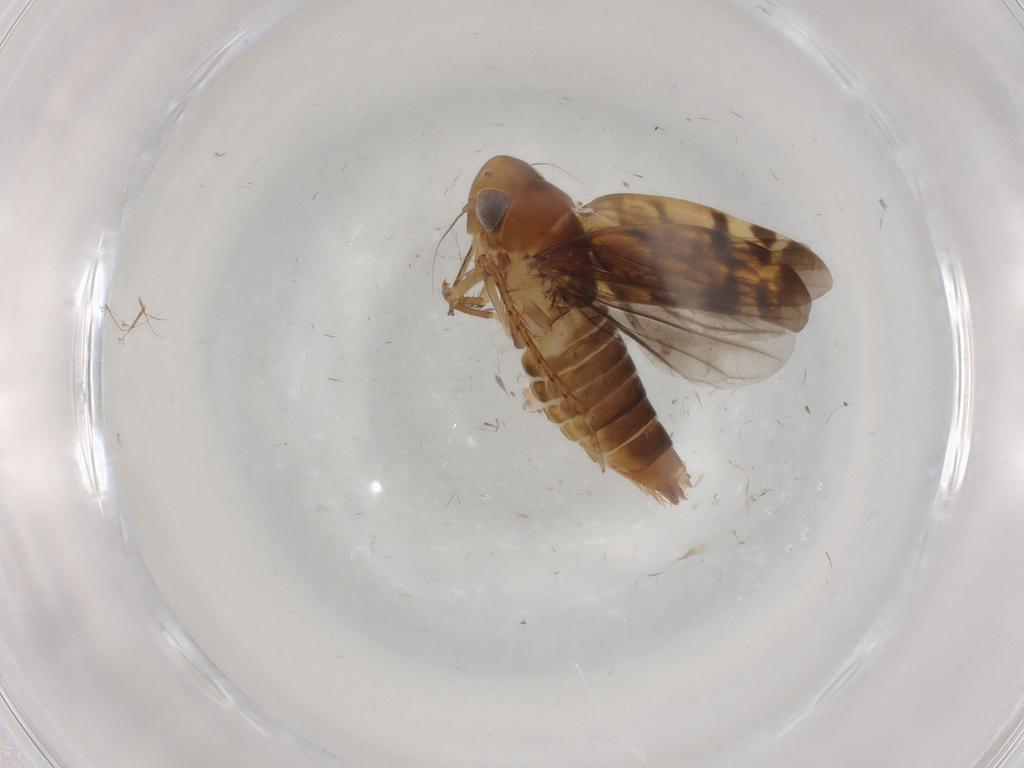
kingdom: Animalia
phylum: Arthropoda
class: Insecta
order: Hemiptera
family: Cicadellidae
